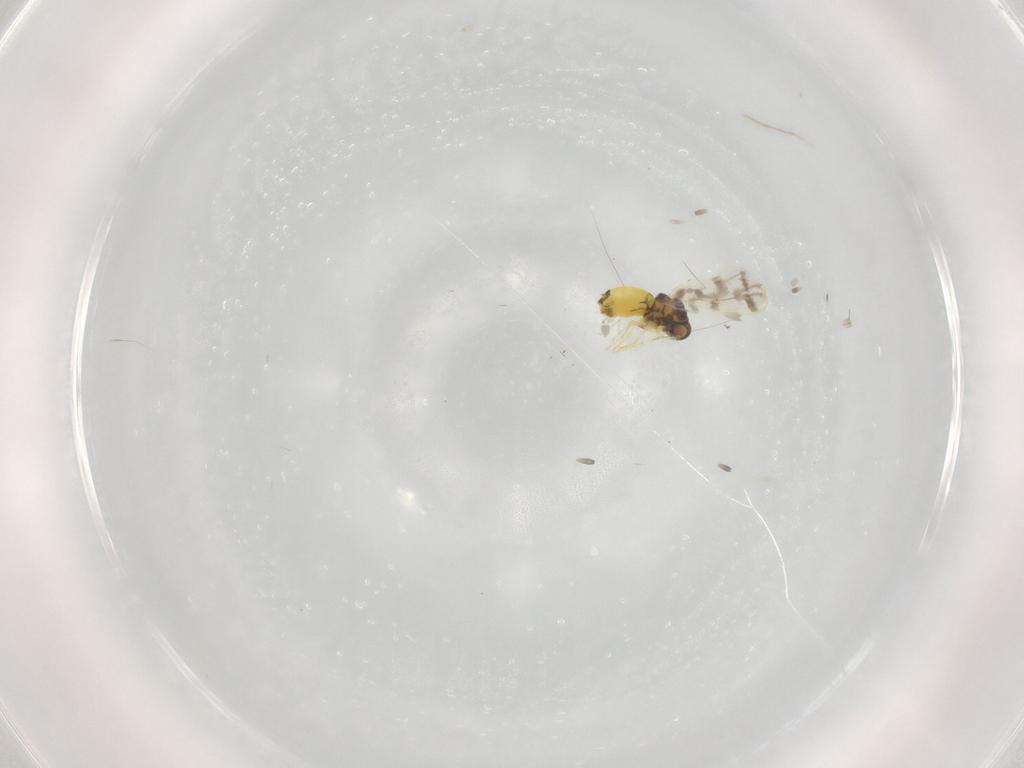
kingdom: Animalia
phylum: Arthropoda
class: Insecta
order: Hemiptera
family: Aleyrodidae
